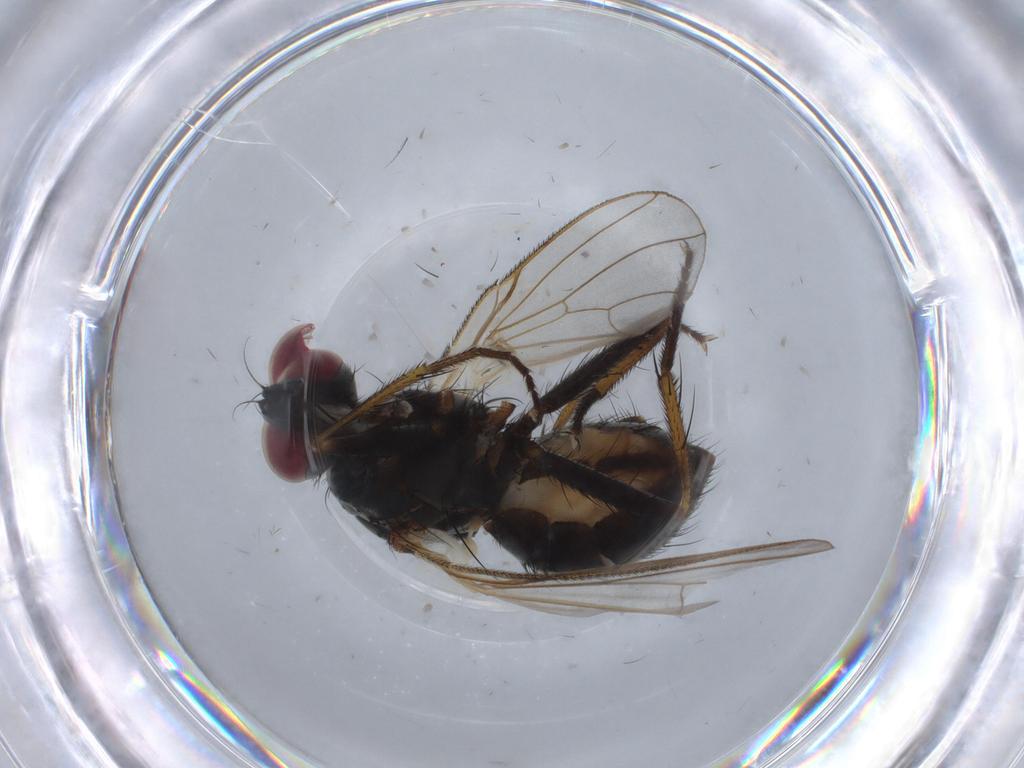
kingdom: Animalia
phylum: Arthropoda
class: Insecta
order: Diptera
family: Muscidae
